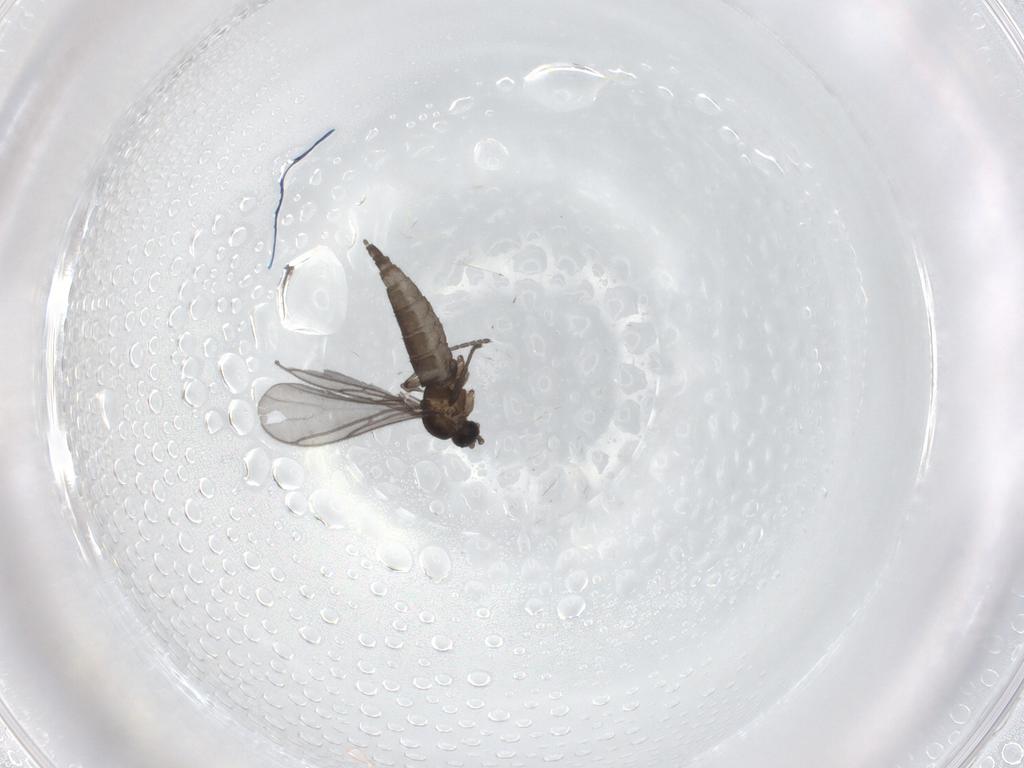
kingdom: Animalia
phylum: Arthropoda
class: Insecta
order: Diptera
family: Sciaridae
